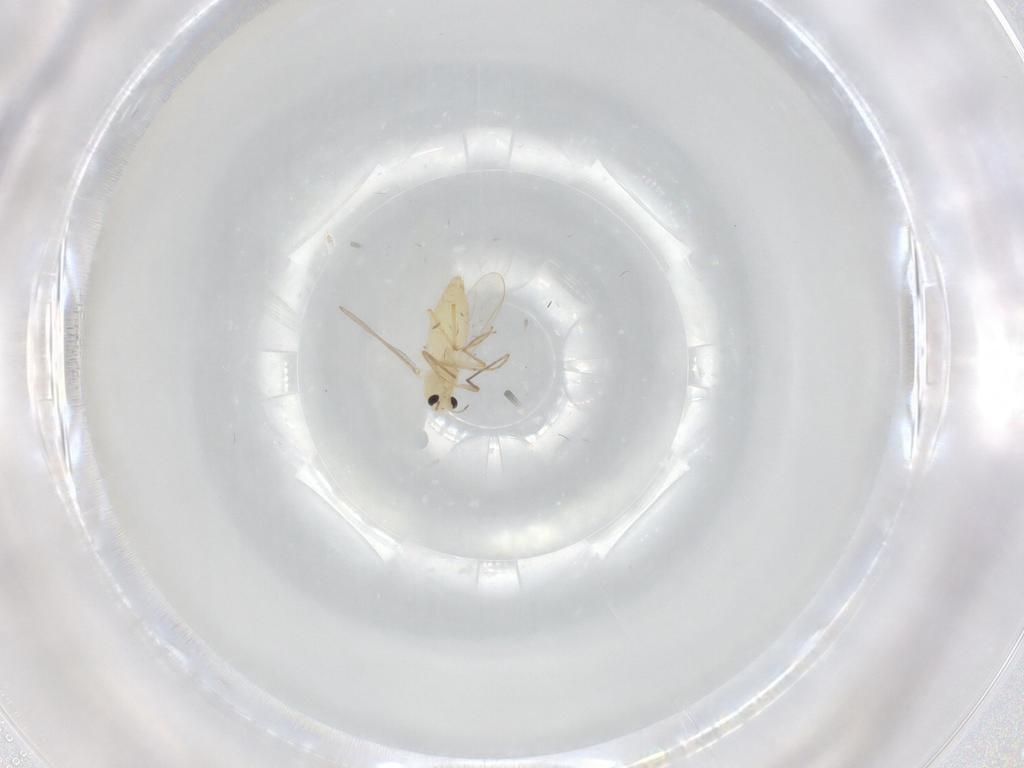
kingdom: Animalia
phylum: Arthropoda
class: Insecta
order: Diptera
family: Chironomidae
